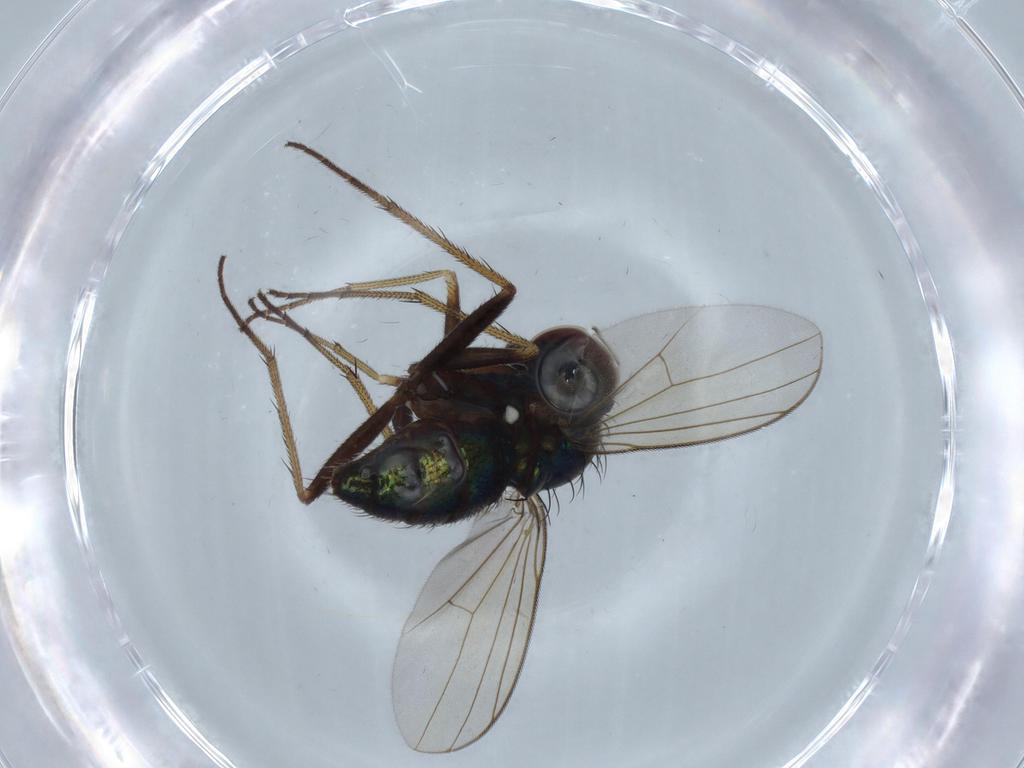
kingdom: Animalia
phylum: Arthropoda
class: Insecta
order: Diptera
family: Dolichopodidae
